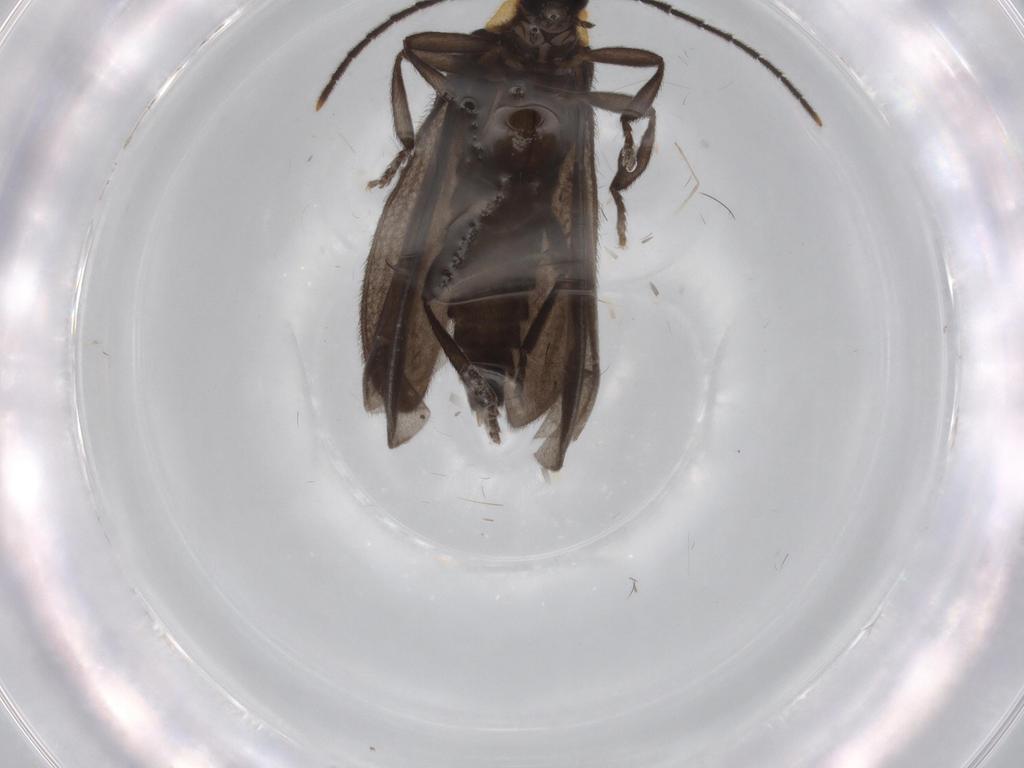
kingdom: Animalia
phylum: Arthropoda
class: Insecta
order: Coleoptera
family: Lycidae
